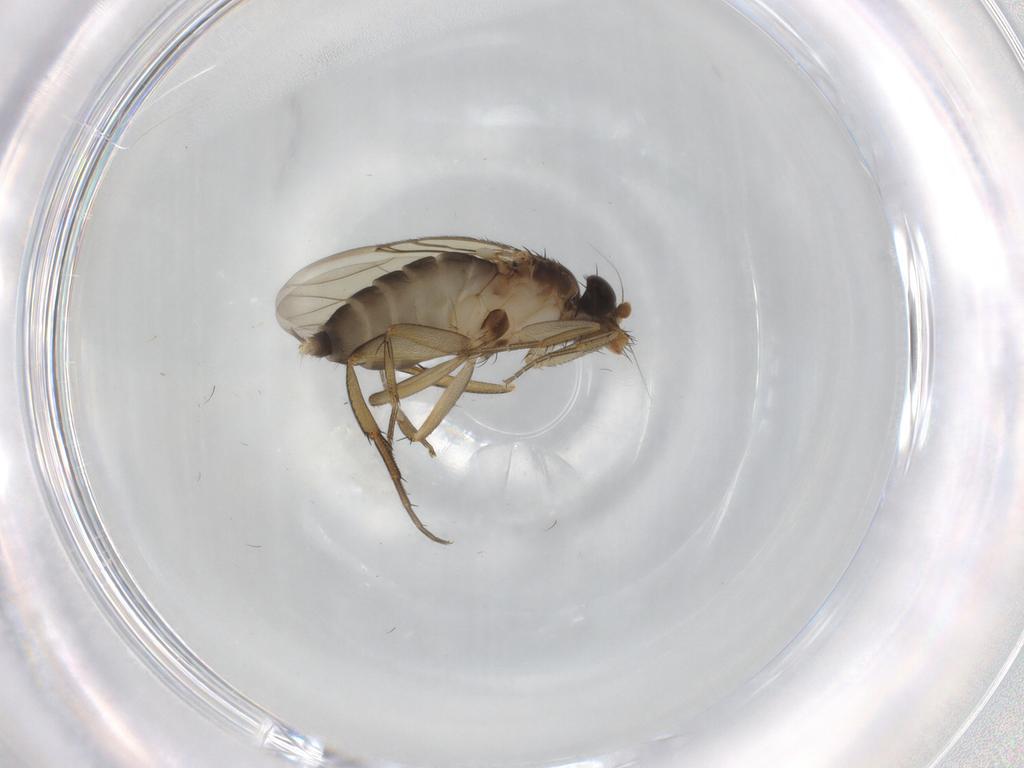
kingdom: Animalia
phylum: Arthropoda
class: Insecta
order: Diptera
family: Phoridae
